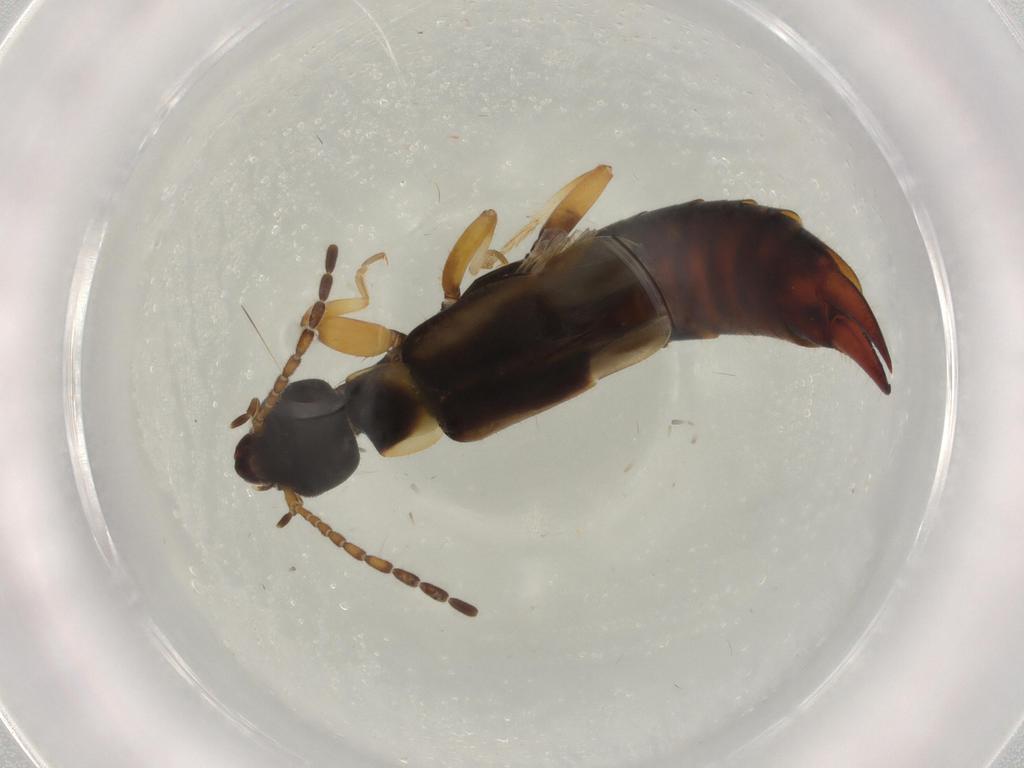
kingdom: Animalia
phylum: Arthropoda
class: Insecta
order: Dermaptera
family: Labiduridae
